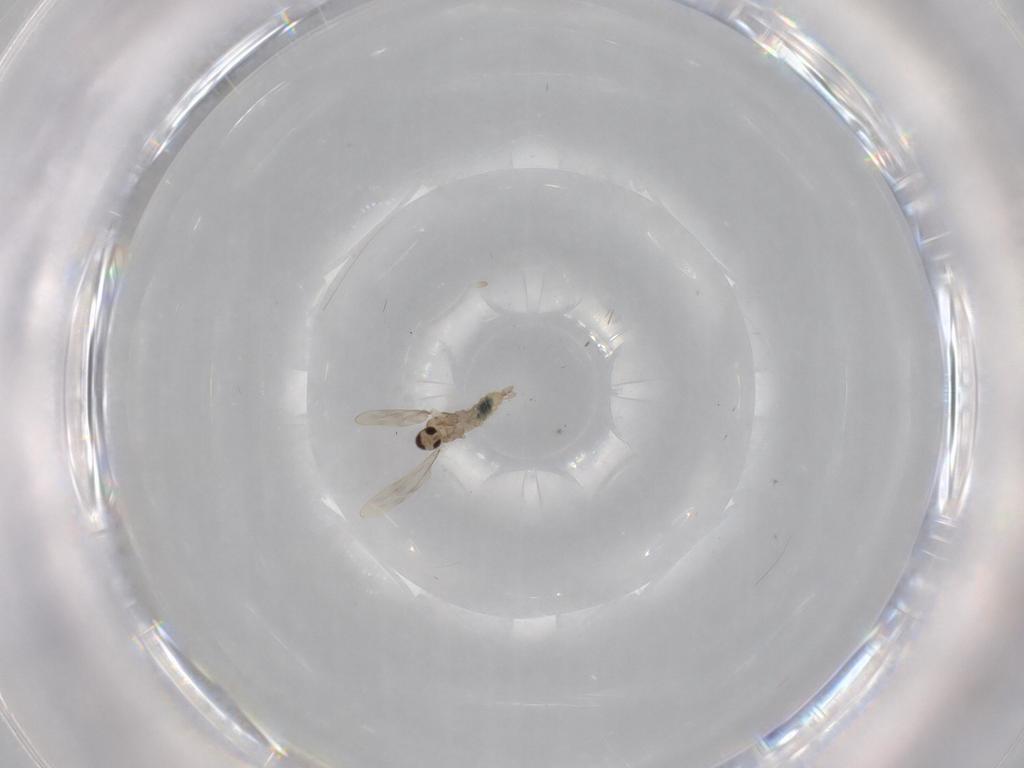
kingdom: Animalia
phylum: Arthropoda
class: Insecta
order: Diptera
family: Cecidomyiidae
